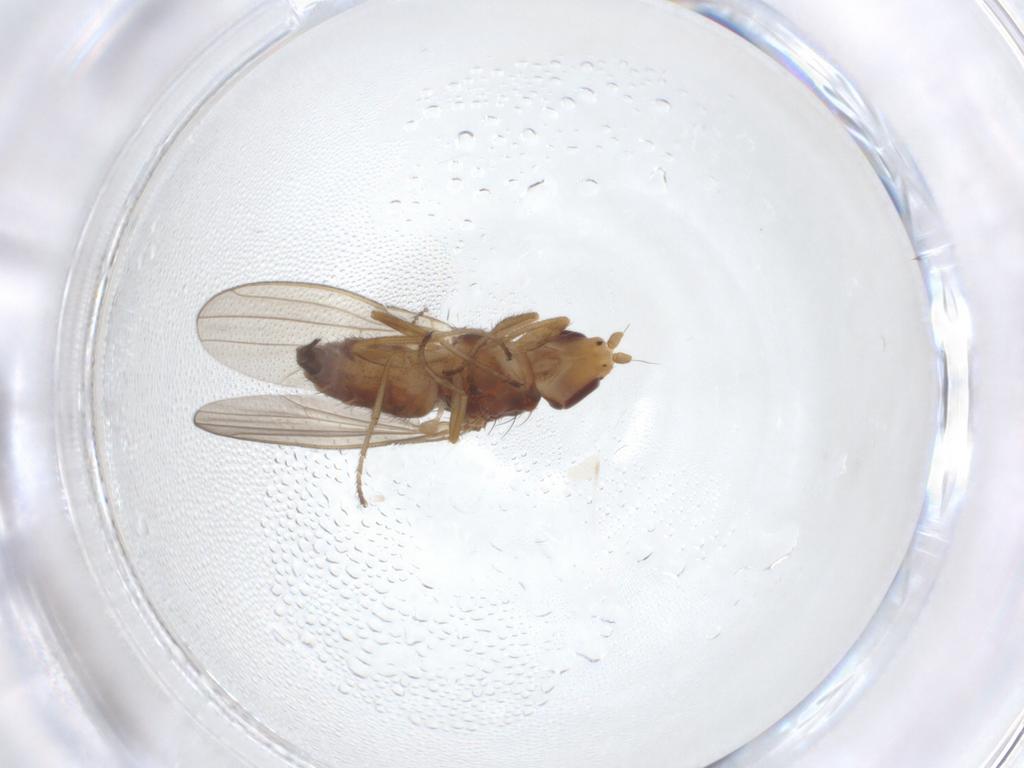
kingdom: Animalia
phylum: Arthropoda
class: Insecta
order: Diptera
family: Canacidae
